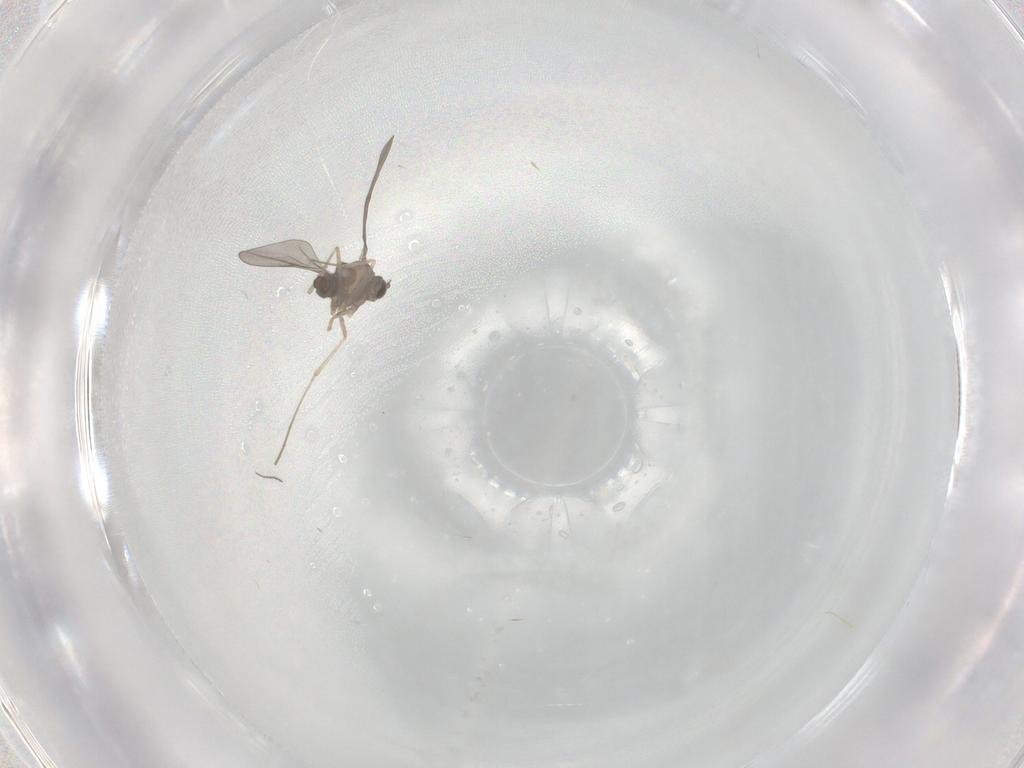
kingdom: Animalia
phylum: Arthropoda
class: Insecta
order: Diptera
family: Cecidomyiidae
